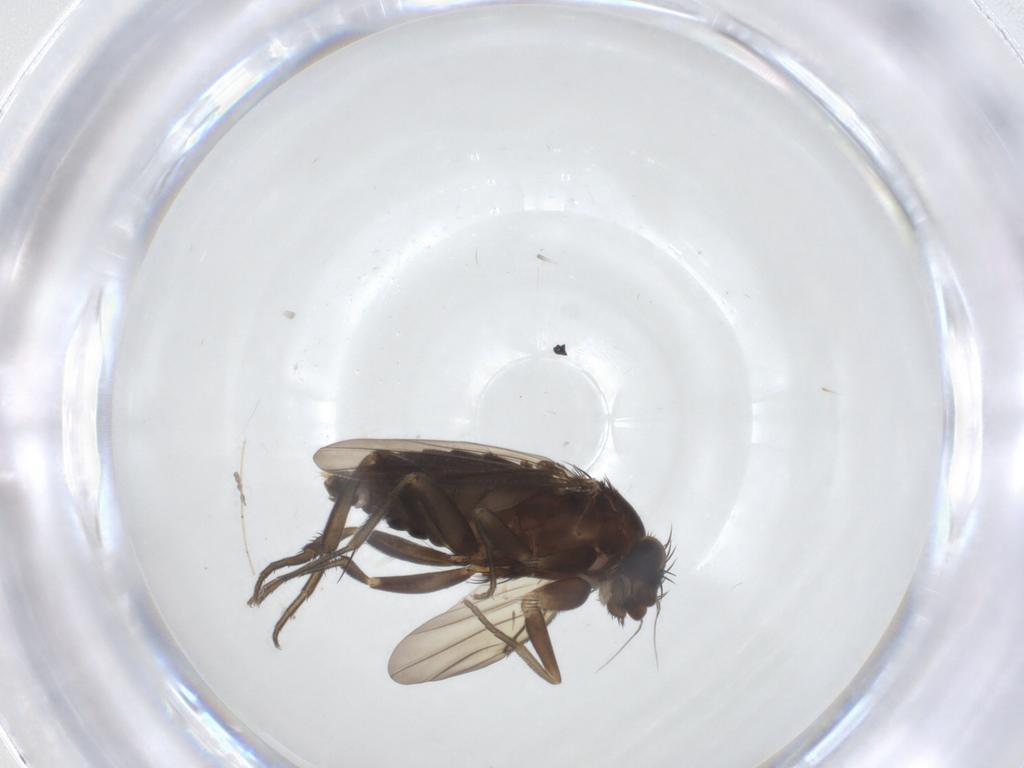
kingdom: Animalia
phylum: Arthropoda
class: Insecta
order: Diptera
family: Phoridae
